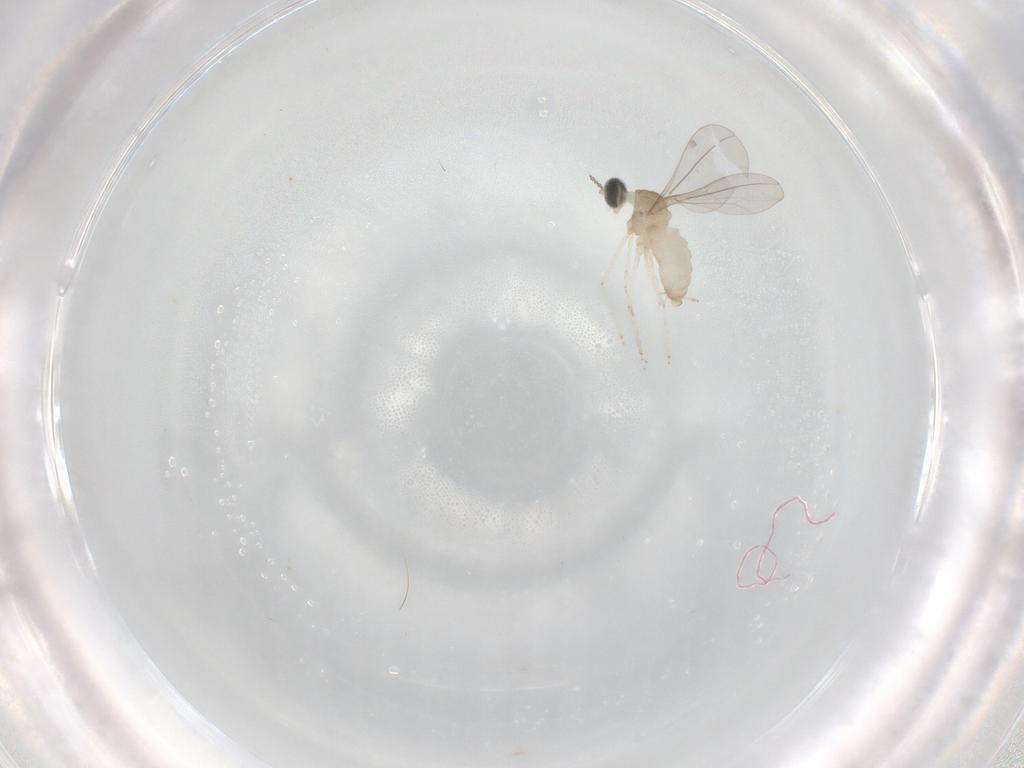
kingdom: Animalia
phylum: Arthropoda
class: Insecta
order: Diptera
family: Cecidomyiidae
